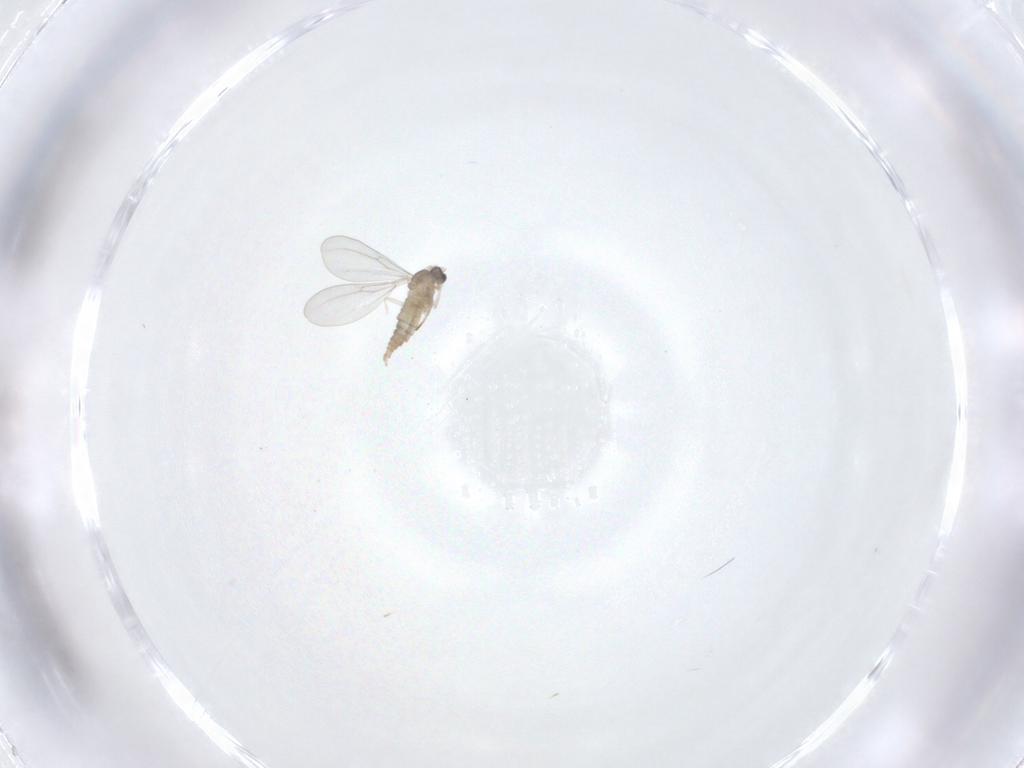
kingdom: Animalia
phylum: Arthropoda
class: Insecta
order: Diptera
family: Ceratopogonidae
